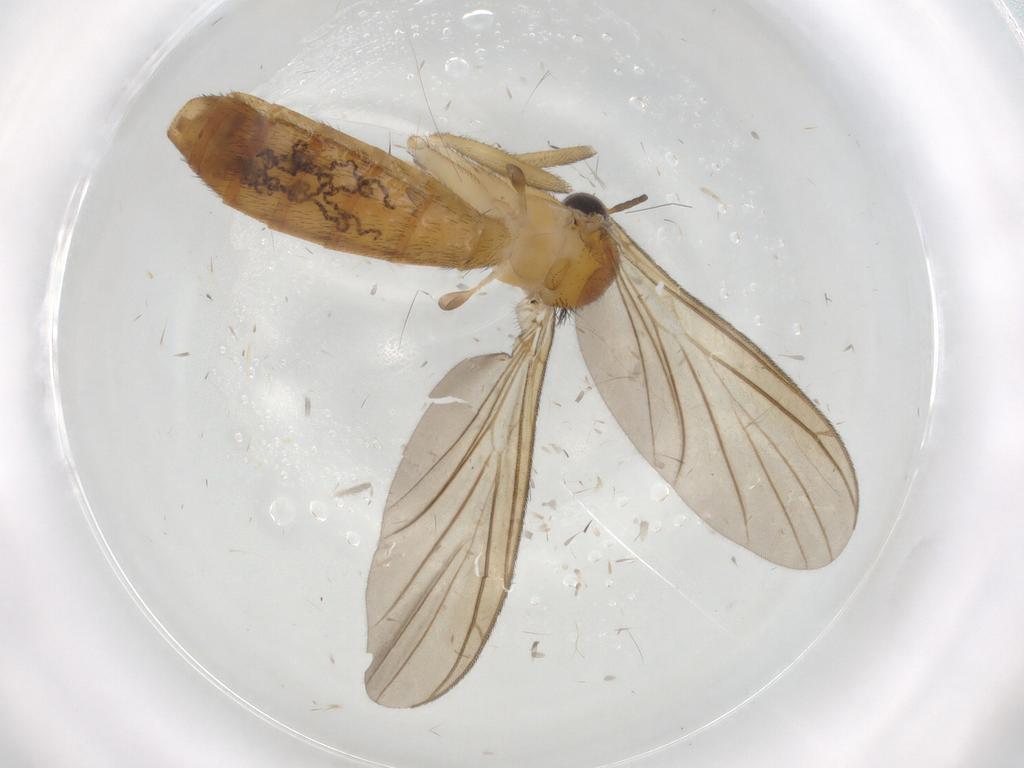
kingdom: Animalia
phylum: Arthropoda
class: Insecta
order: Diptera
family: Keroplatidae
